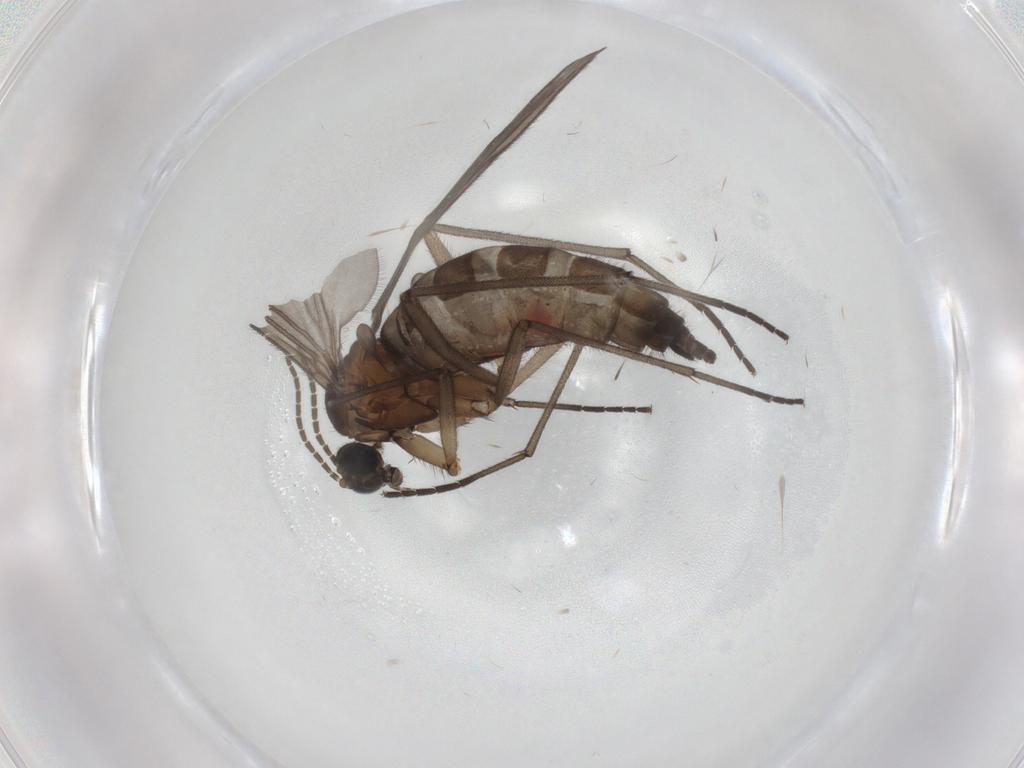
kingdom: Animalia
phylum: Arthropoda
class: Insecta
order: Diptera
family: Sciaridae
